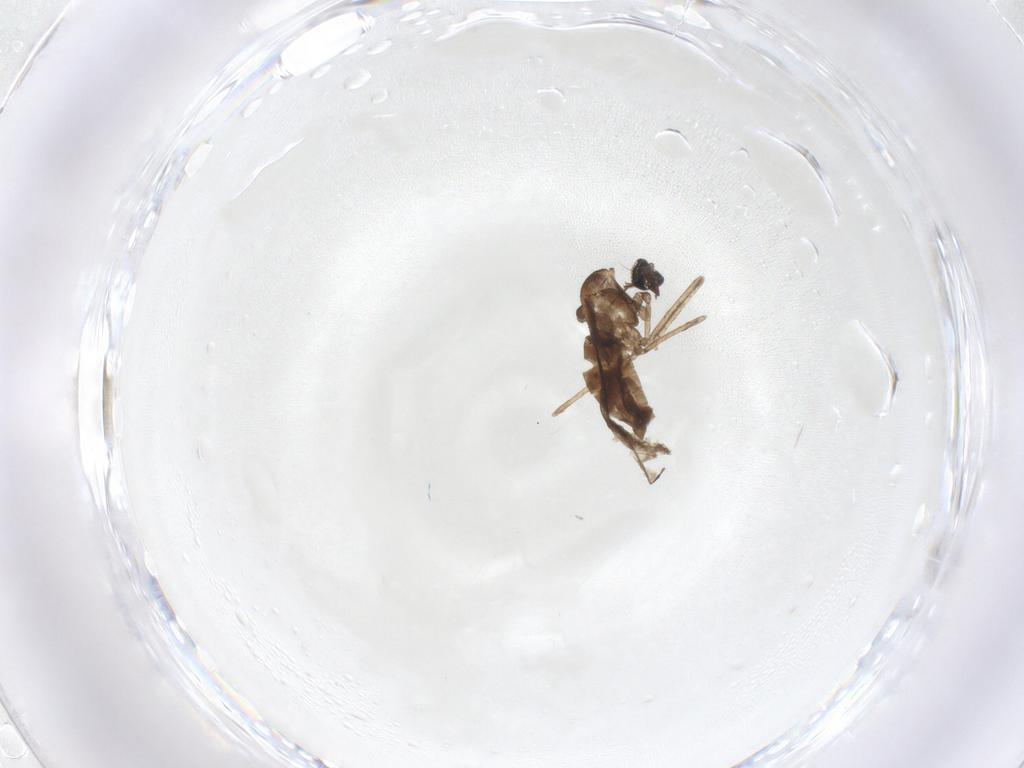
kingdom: Animalia
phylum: Arthropoda
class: Insecta
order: Diptera
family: Cecidomyiidae
